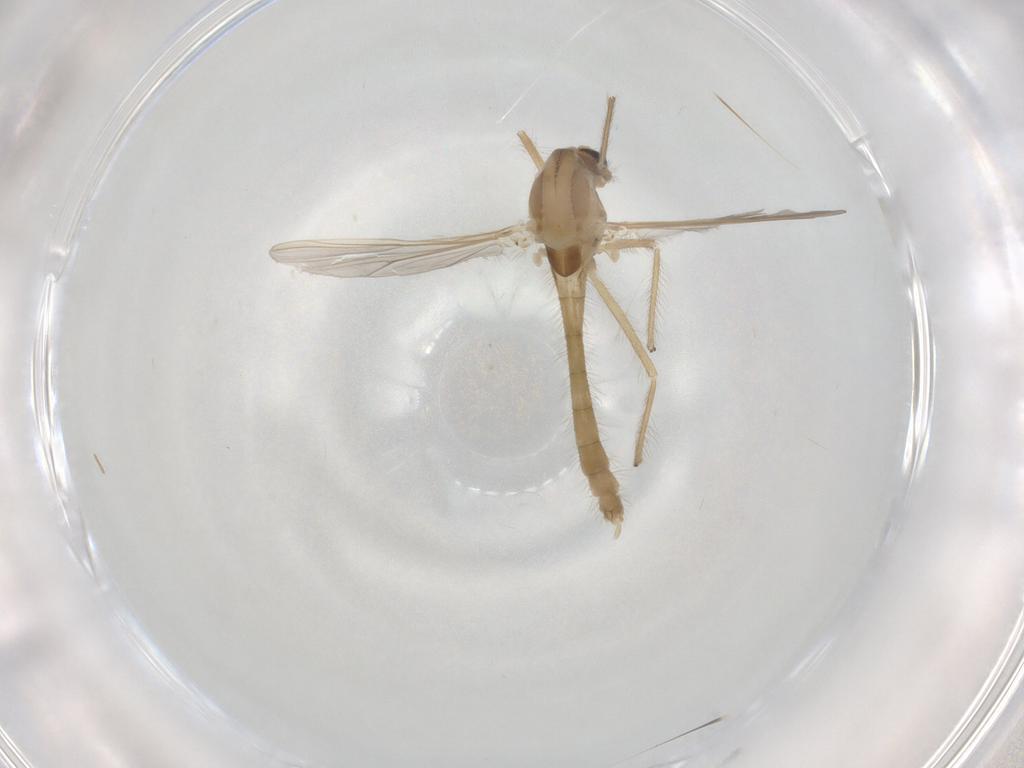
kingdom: Animalia
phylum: Arthropoda
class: Insecta
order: Diptera
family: Chironomidae
